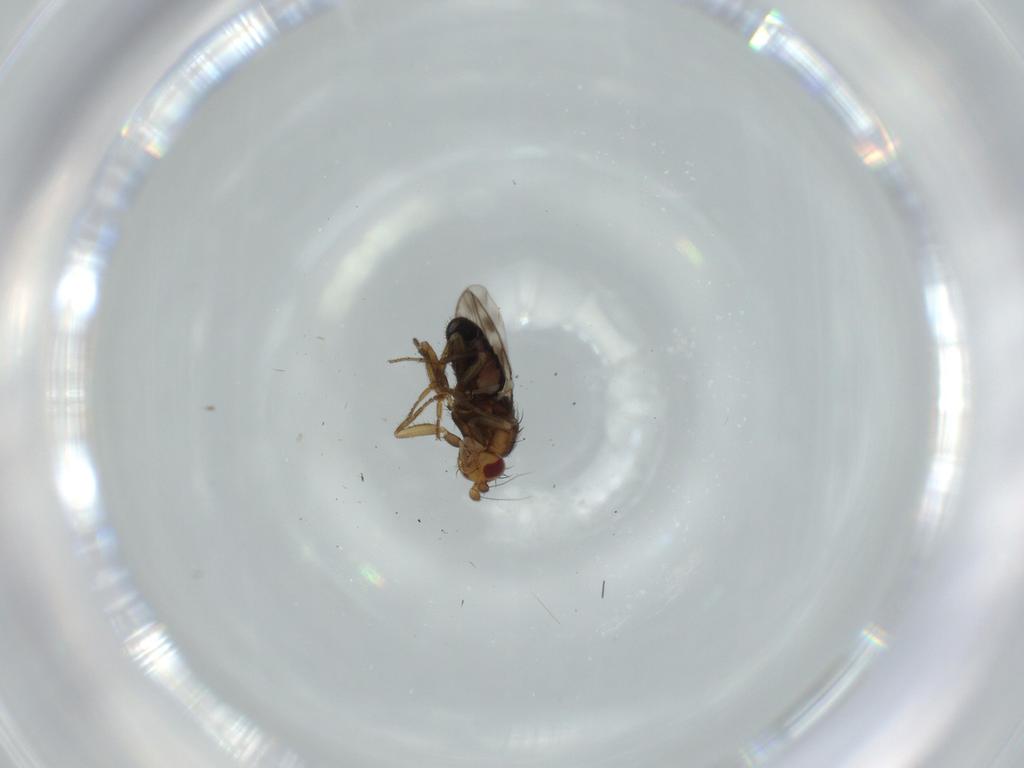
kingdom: Animalia
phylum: Arthropoda
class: Insecta
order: Diptera
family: Sphaeroceridae
